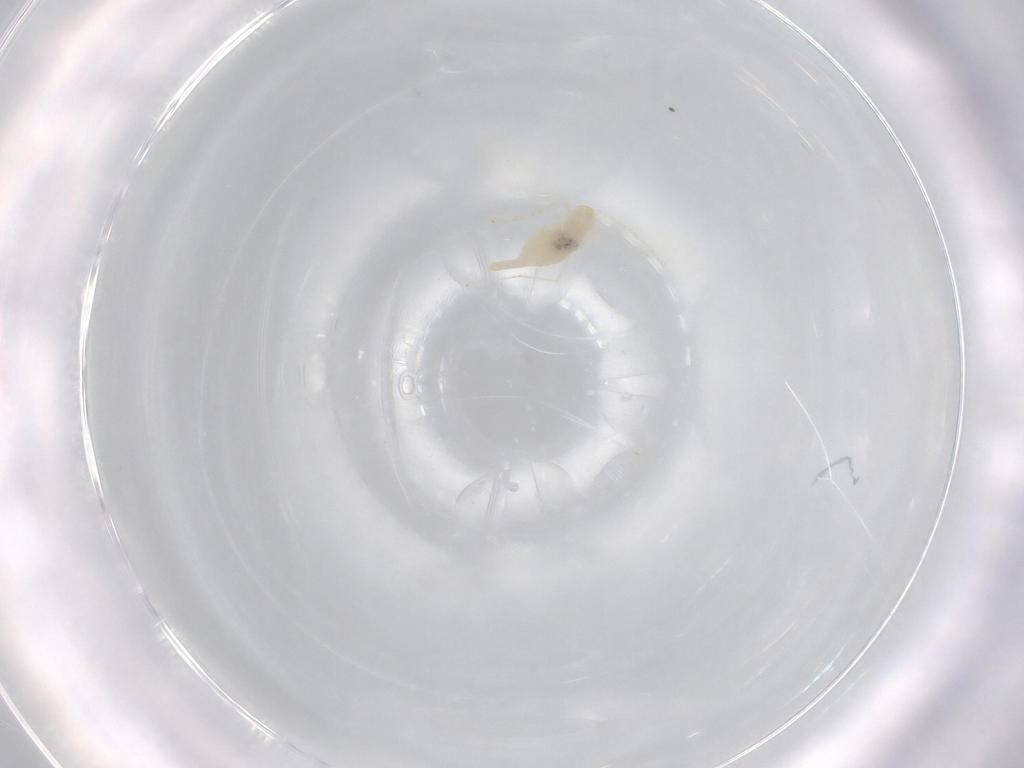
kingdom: Animalia
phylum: Arthropoda
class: Insecta
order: Diptera
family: Cecidomyiidae
